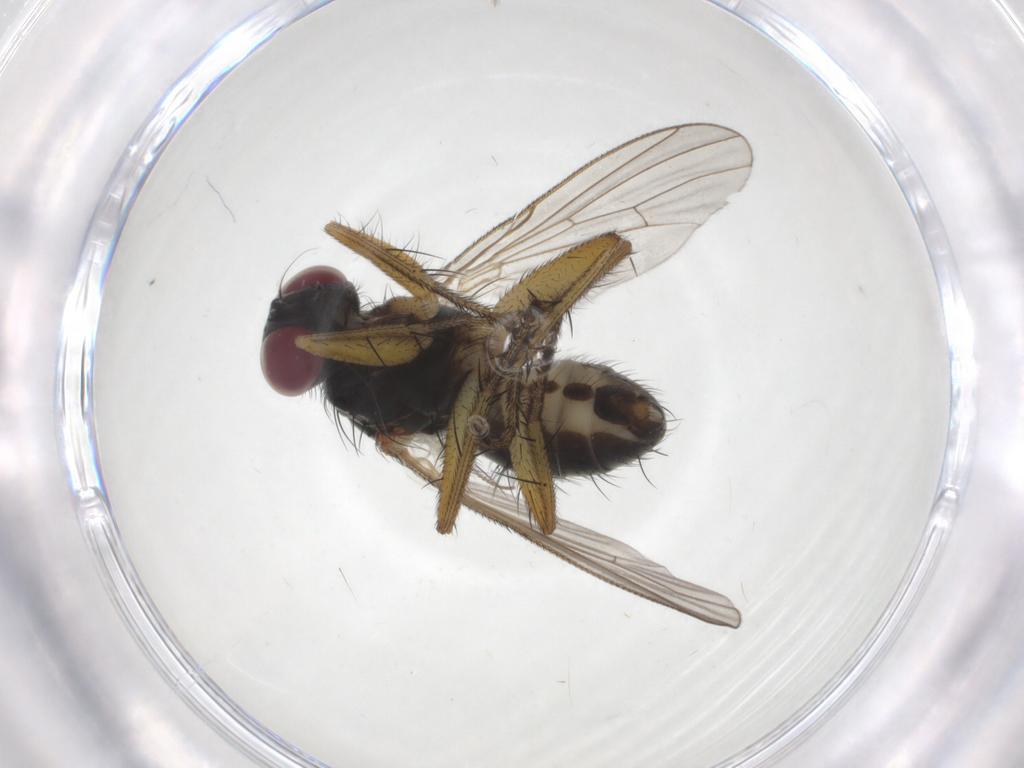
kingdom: Animalia
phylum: Arthropoda
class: Insecta
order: Diptera
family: Muscidae
